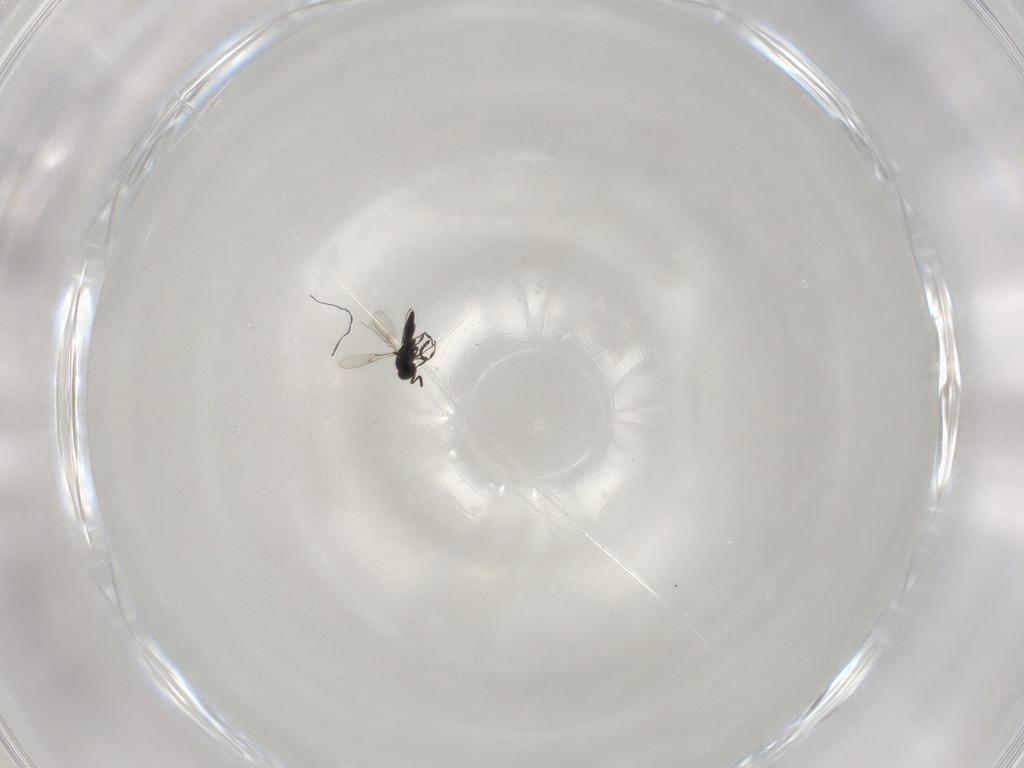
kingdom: Animalia
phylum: Arthropoda
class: Insecta
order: Hymenoptera
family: Scelionidae
